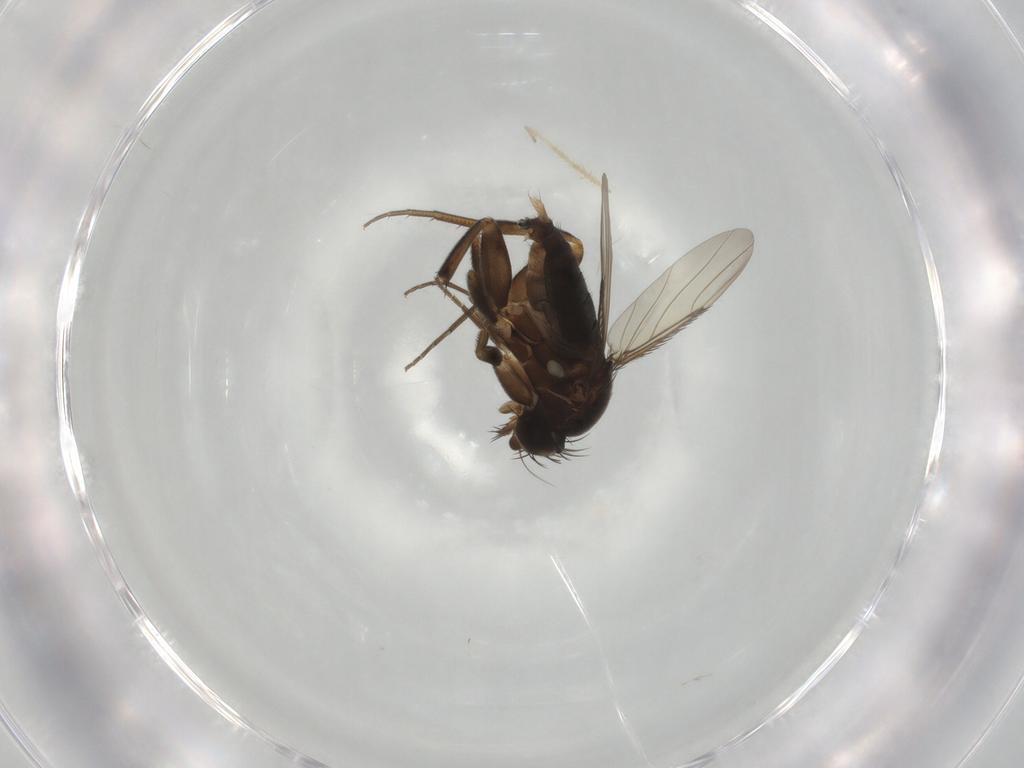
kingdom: Animalia
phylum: Arthropoda
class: Insecta
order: Diptera
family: Phoridae
